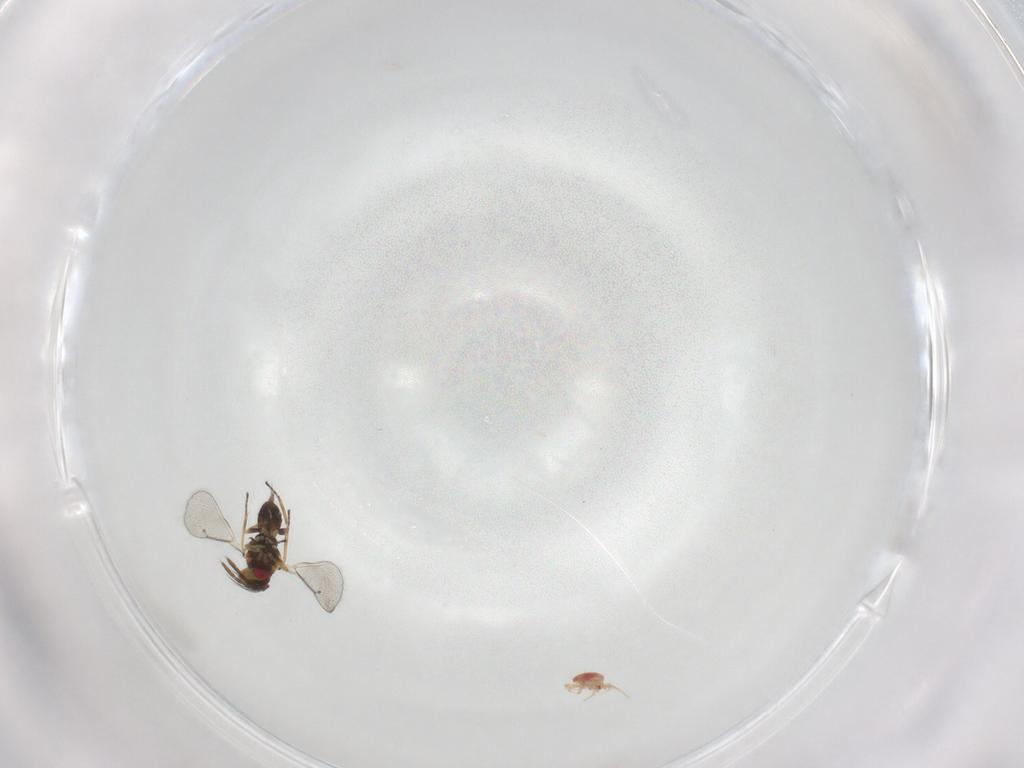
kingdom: Animalia
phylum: Arthropoda
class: Insecta
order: Hymenoptera
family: Eulophidae
